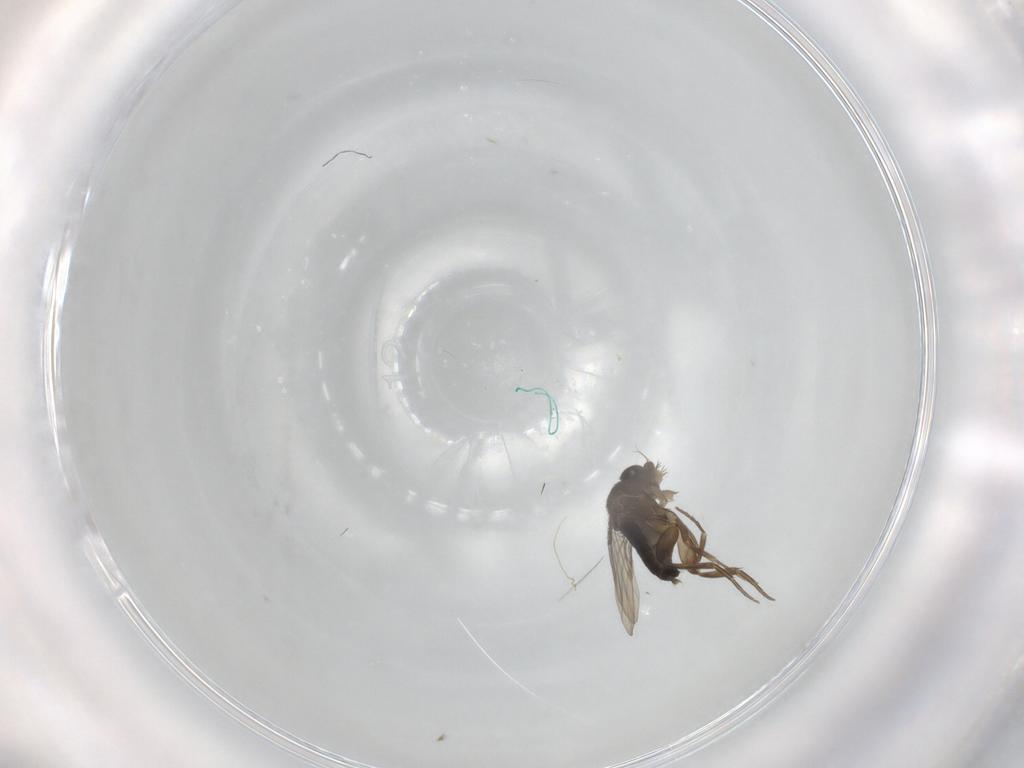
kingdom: Animalia
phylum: Arthropoda
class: Insecta
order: Diptera
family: Phoridae
